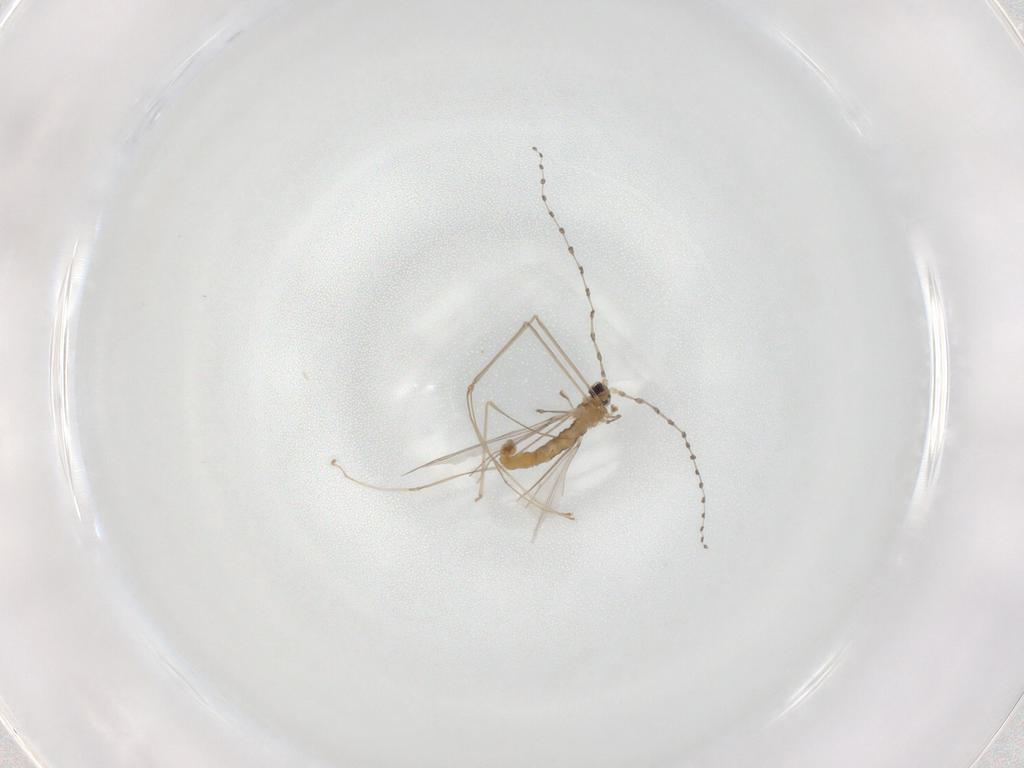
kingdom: Animalia
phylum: Arthropoda
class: Insecta
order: Diptera
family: Cecidomyiidae
